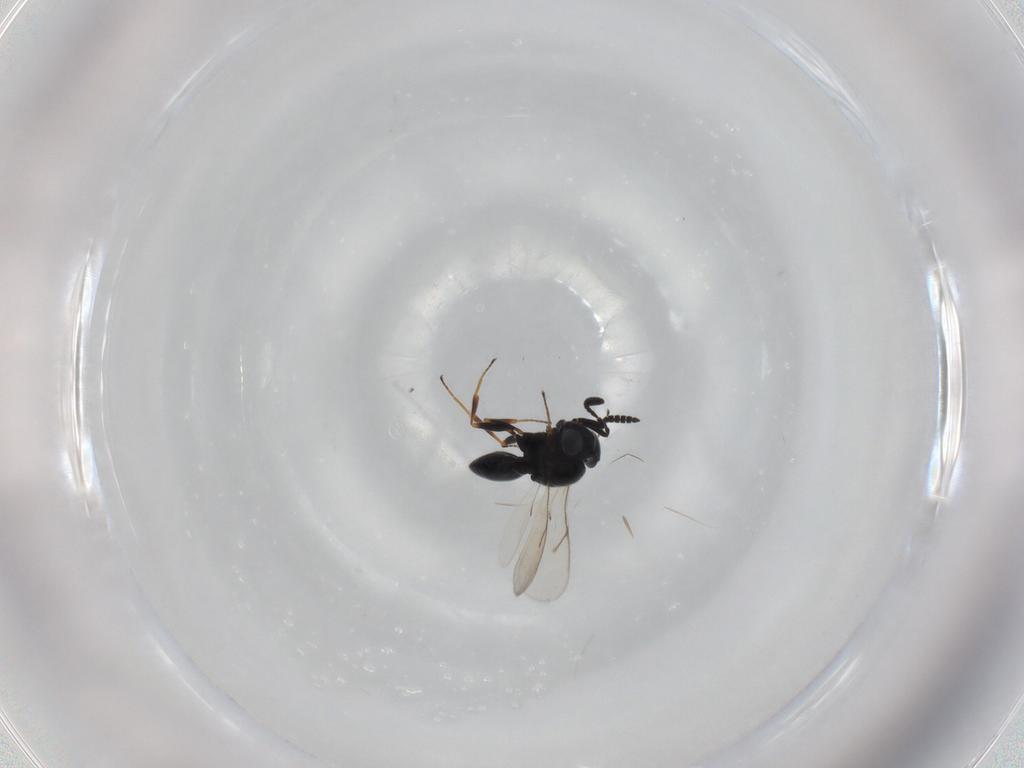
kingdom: Animalia
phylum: Arthropoda
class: Insecta
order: Hymenoptera
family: Scelionidae
